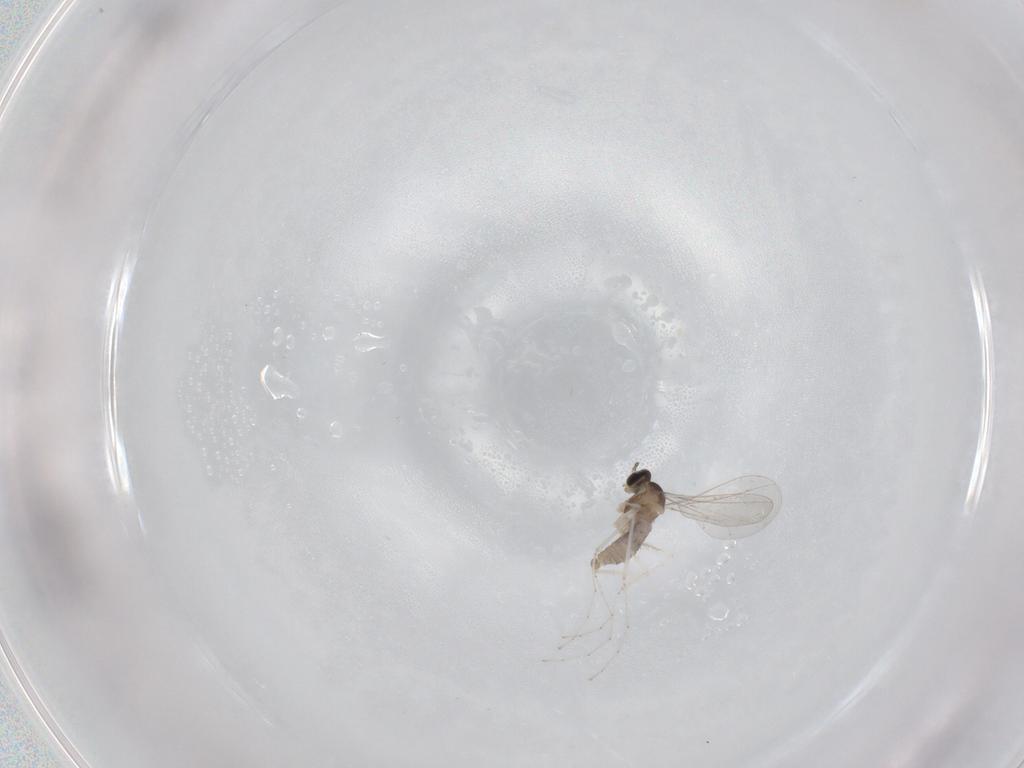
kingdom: Animalia
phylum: Arthropoda
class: Insecta
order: Diptera
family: Cecidomyiidae
